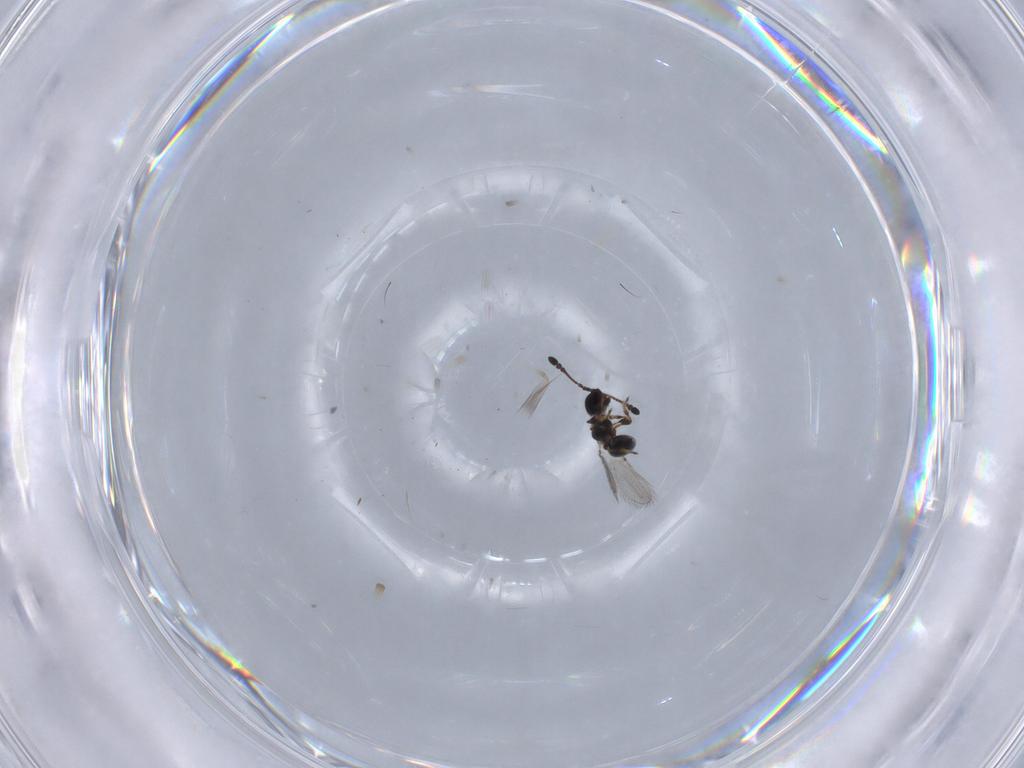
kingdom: Animalia
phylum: Arthropoda
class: Insecta
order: Hymenoptera
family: Diapriidae
